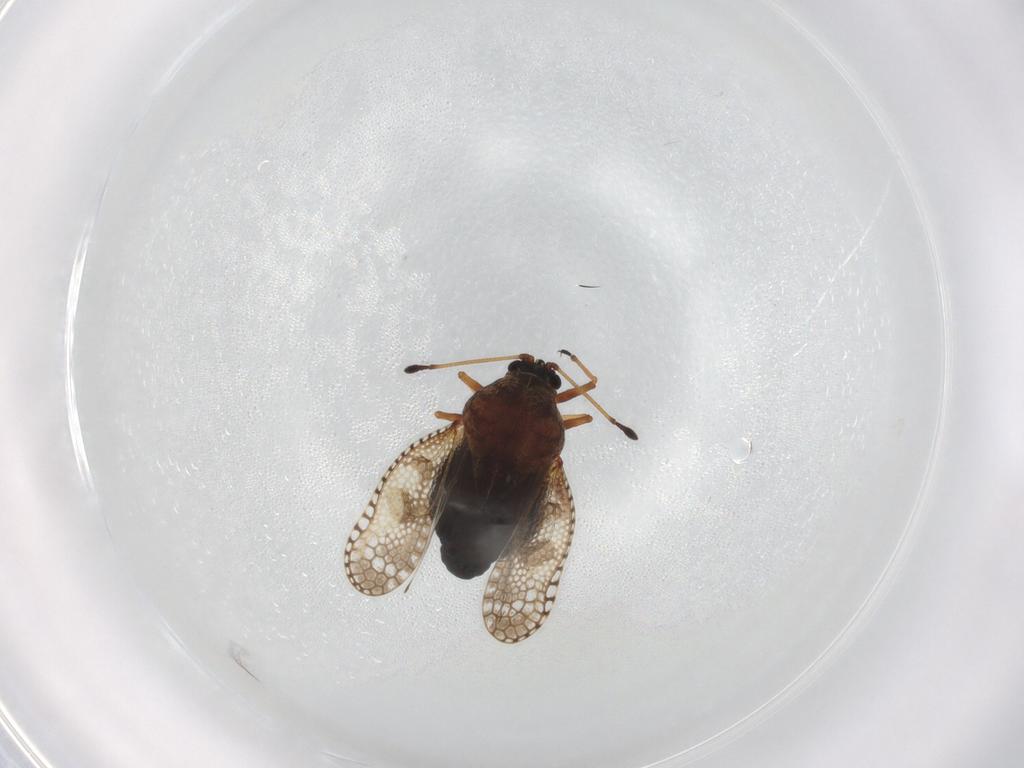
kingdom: Animalia
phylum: Arthropoda
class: Insecta
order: Hemiptera
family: Tingidae
